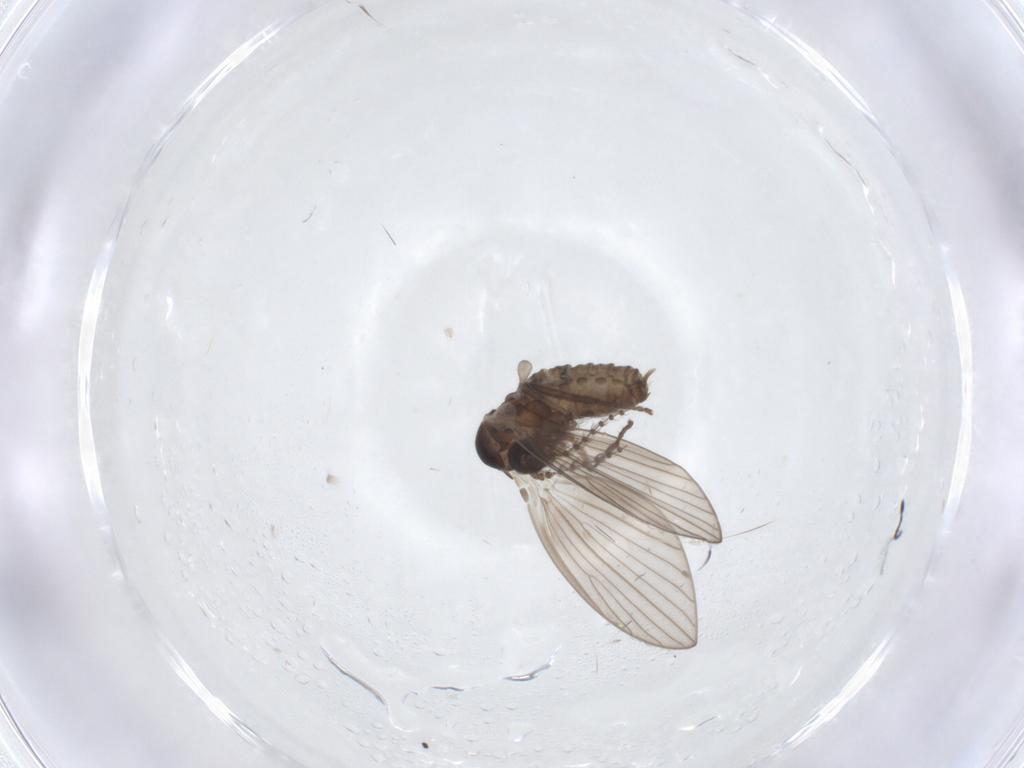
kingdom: Animalia
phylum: Arthropoda
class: Insecta
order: Diptera
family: Psychodidae
